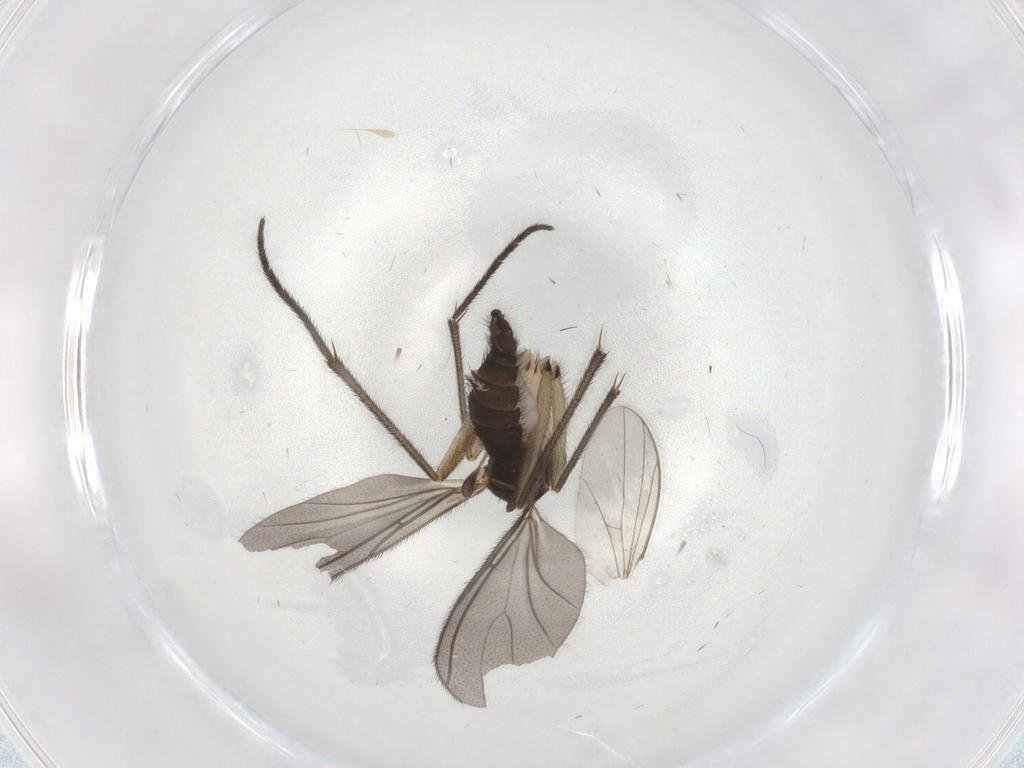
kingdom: Animalia
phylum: Arthropoda
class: Insecta
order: Diptera
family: Sciaridae
